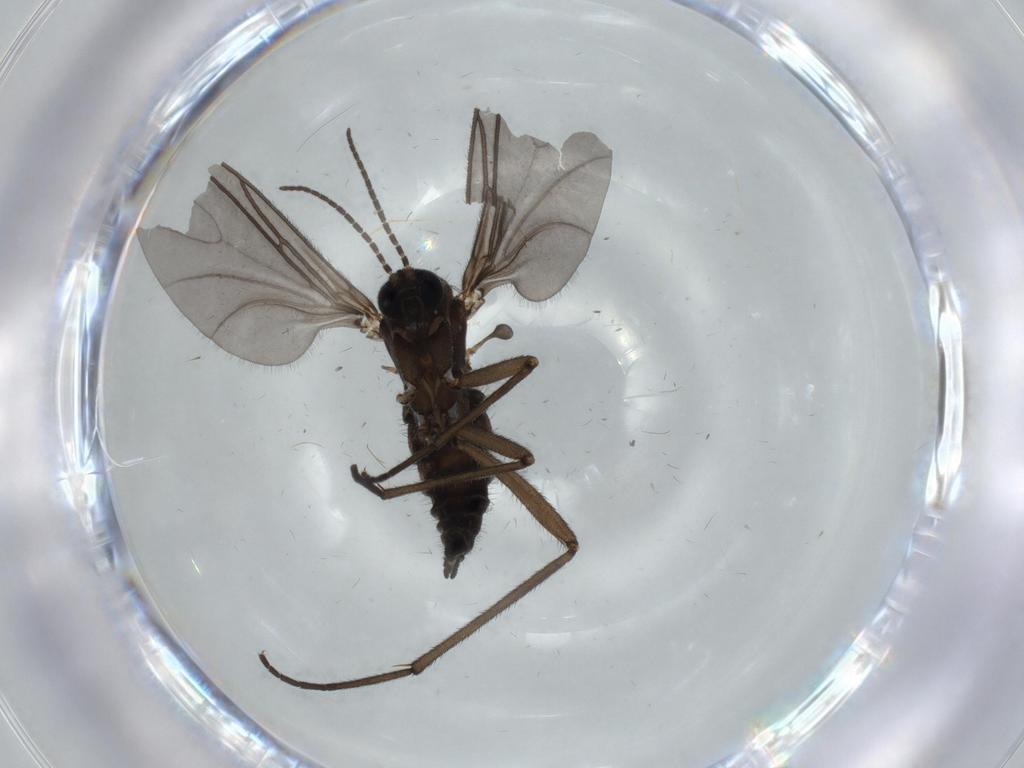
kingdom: Animalia
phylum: Arthropoda
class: Insecta
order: Diptera
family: Sciaridae
